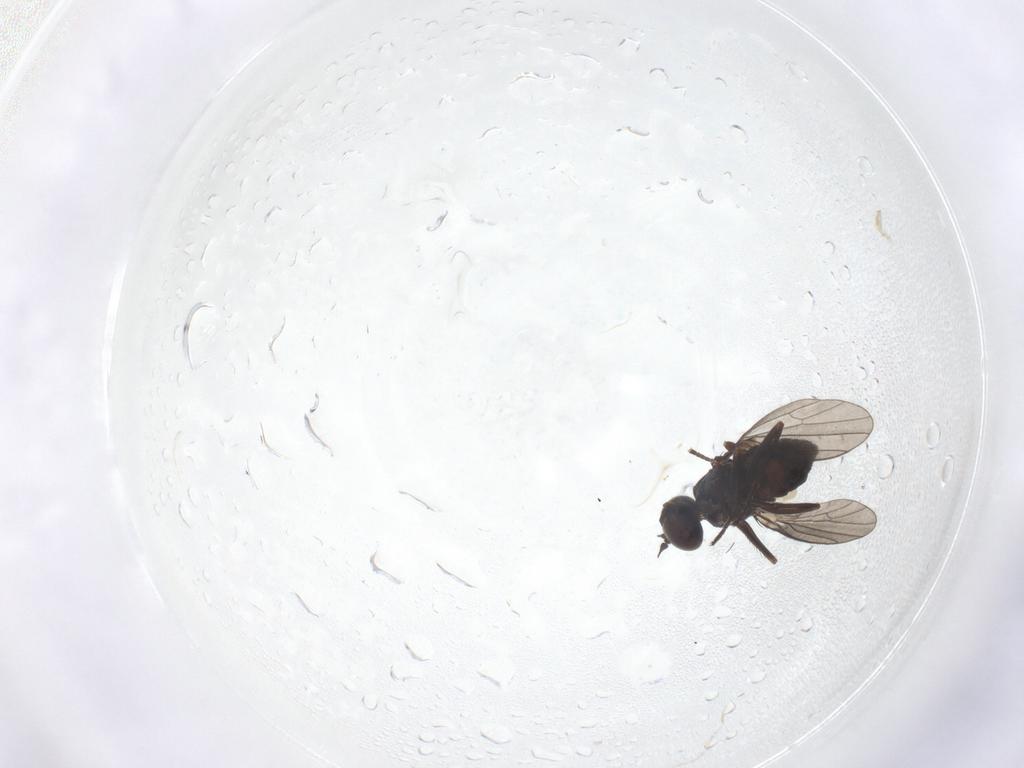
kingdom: Animalia
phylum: Arthropoda
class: Insecta
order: Diptera
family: Dolichopodidae
